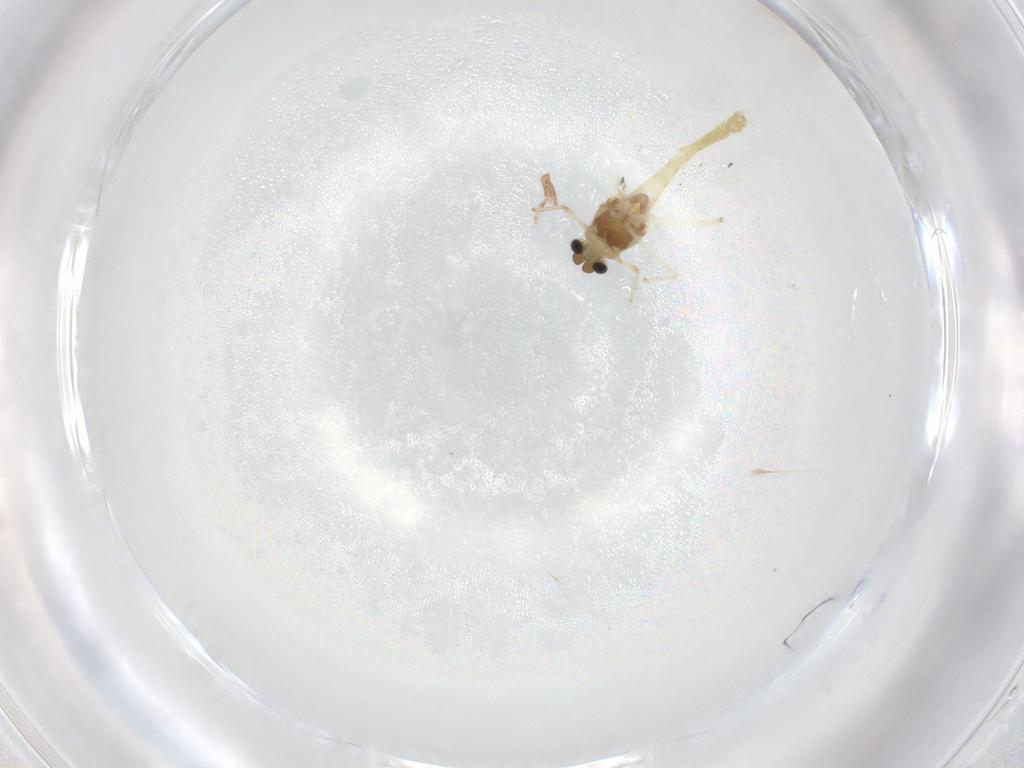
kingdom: Animalia
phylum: Arthropoda
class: Insecta
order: Diptera
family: Chironomidae
